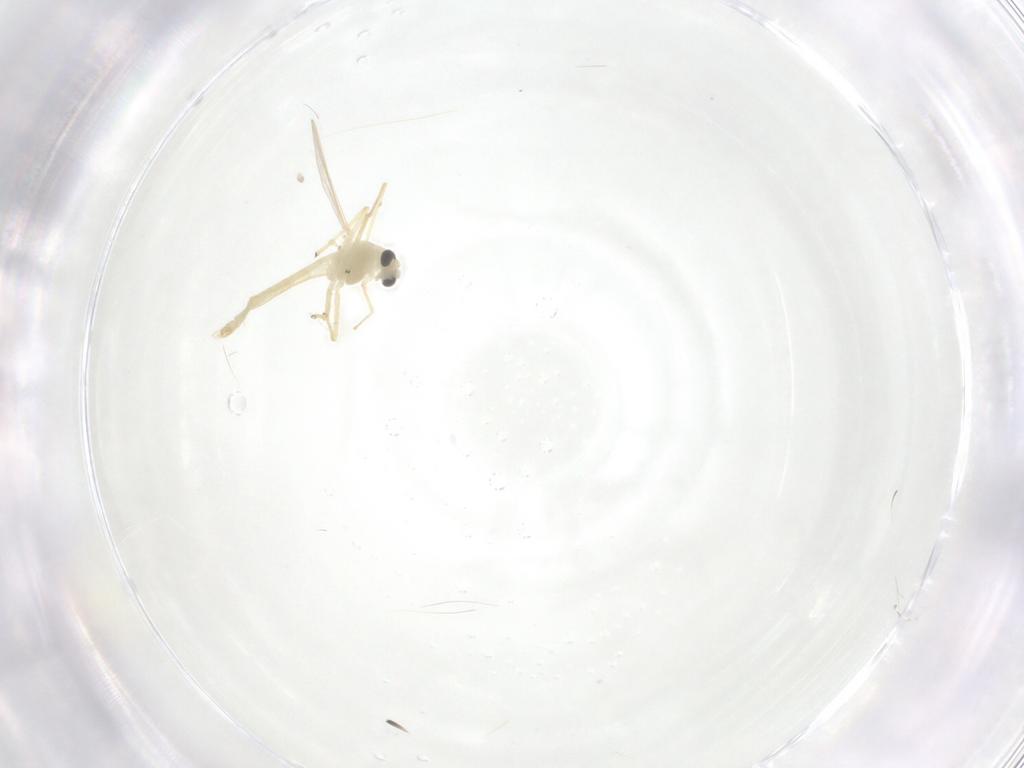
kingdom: Animalia
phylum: Arthropoda
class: Insecta
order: Diptera
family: Chironomidae
